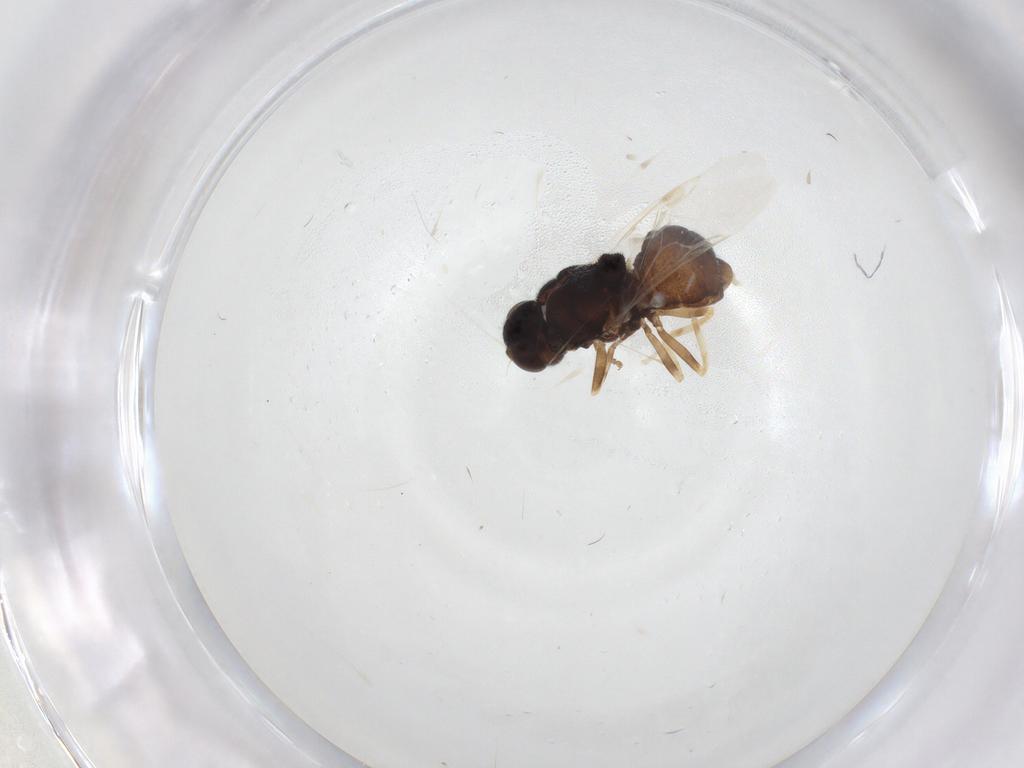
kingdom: Animalia
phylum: Arthropoda
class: Insecta
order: Diptera
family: Stratiomyidae
